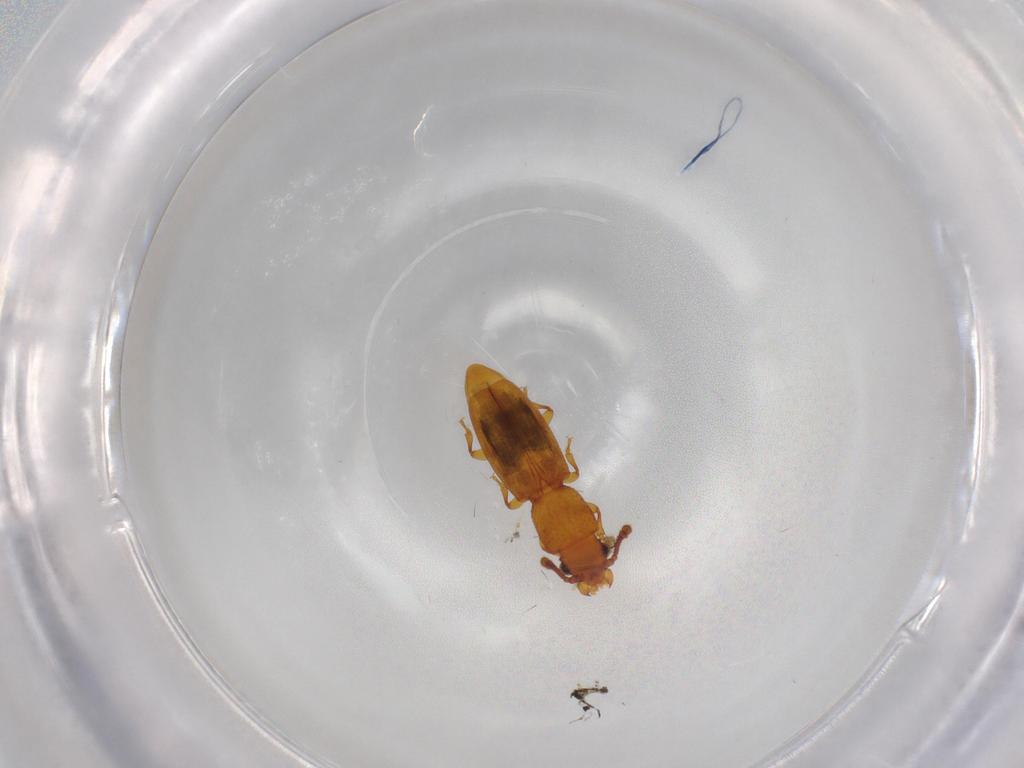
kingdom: Animalia
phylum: Arthropoda
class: Insecta
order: Coleoptera
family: Monotomidae
